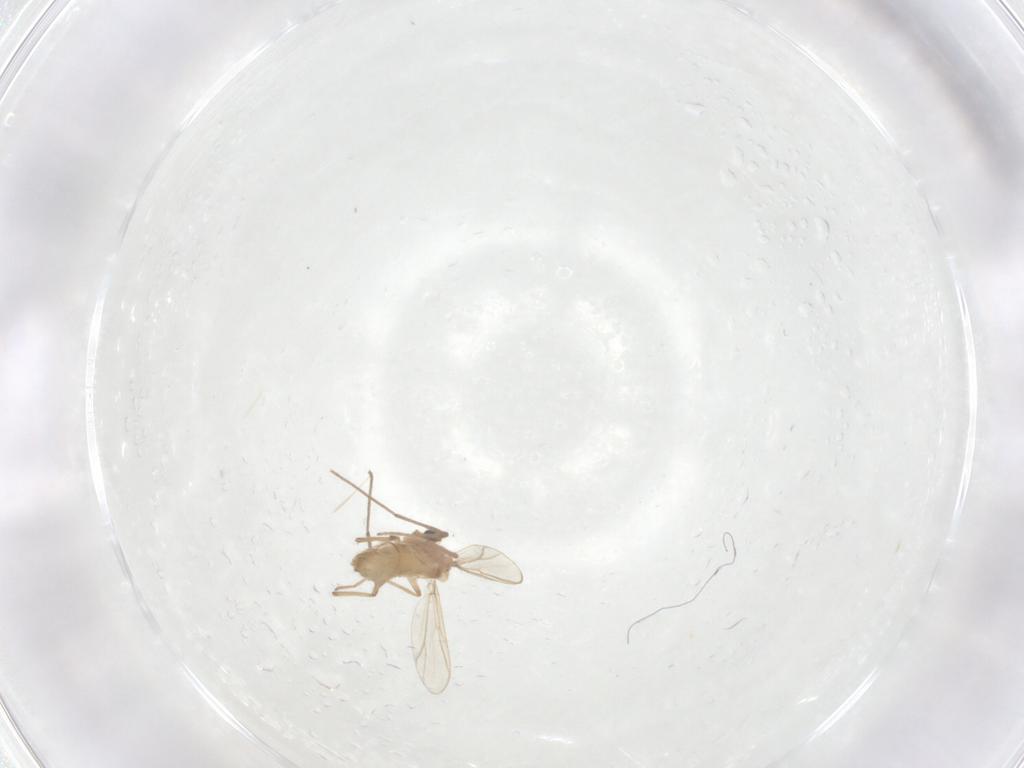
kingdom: Animalia
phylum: Arthropoda
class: Insecta
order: Diptera
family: Chironomidae
